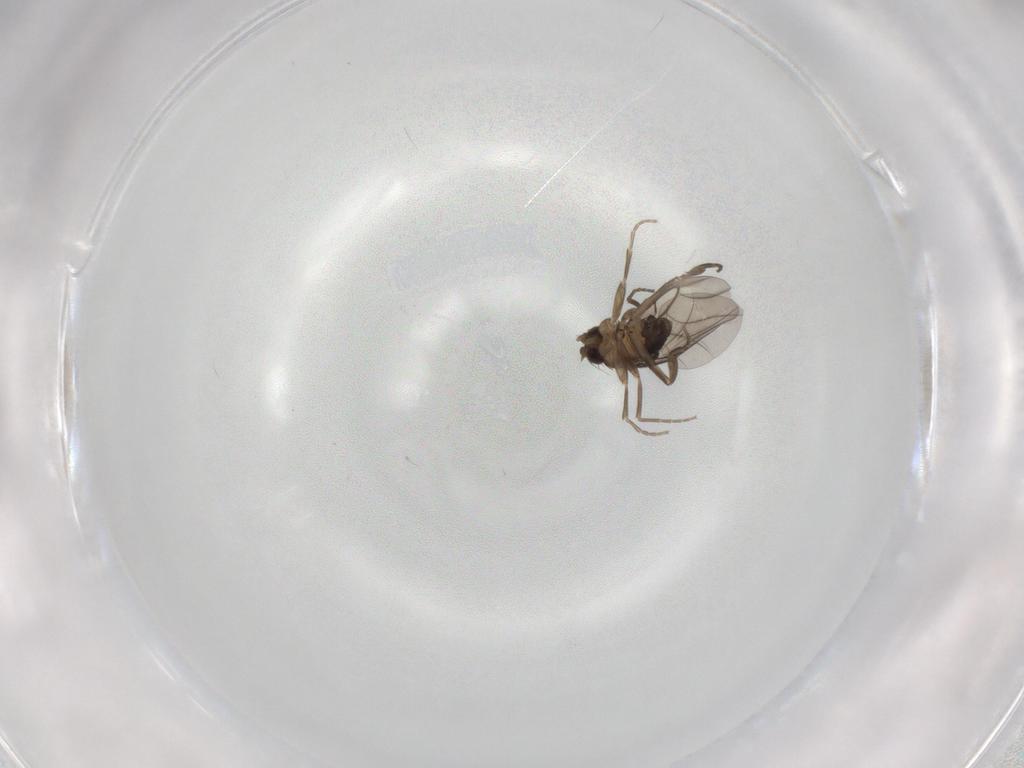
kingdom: Animalia
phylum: Arthropoda
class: Insecta
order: Diptera
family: Phoridae
